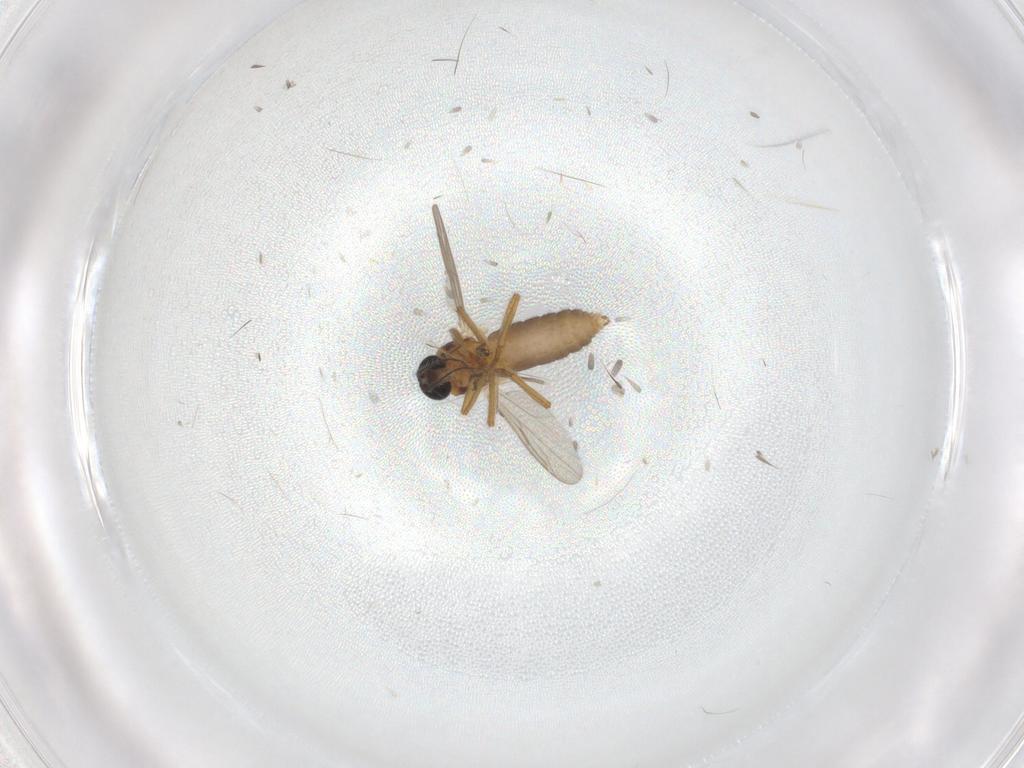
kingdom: Animalia
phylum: Arthropoda
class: Insecta
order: Diptera
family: Ceratopogonidae
